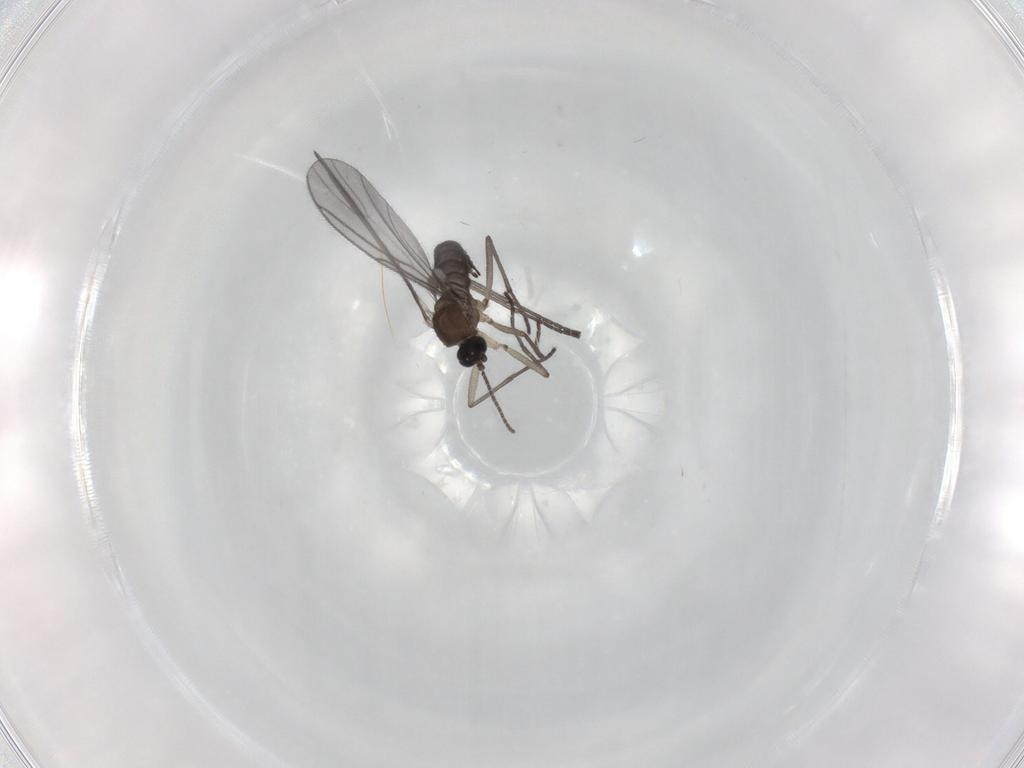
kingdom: Animalia
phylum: Arthropoda
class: Insecta
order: Diptera
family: Sciaridae
